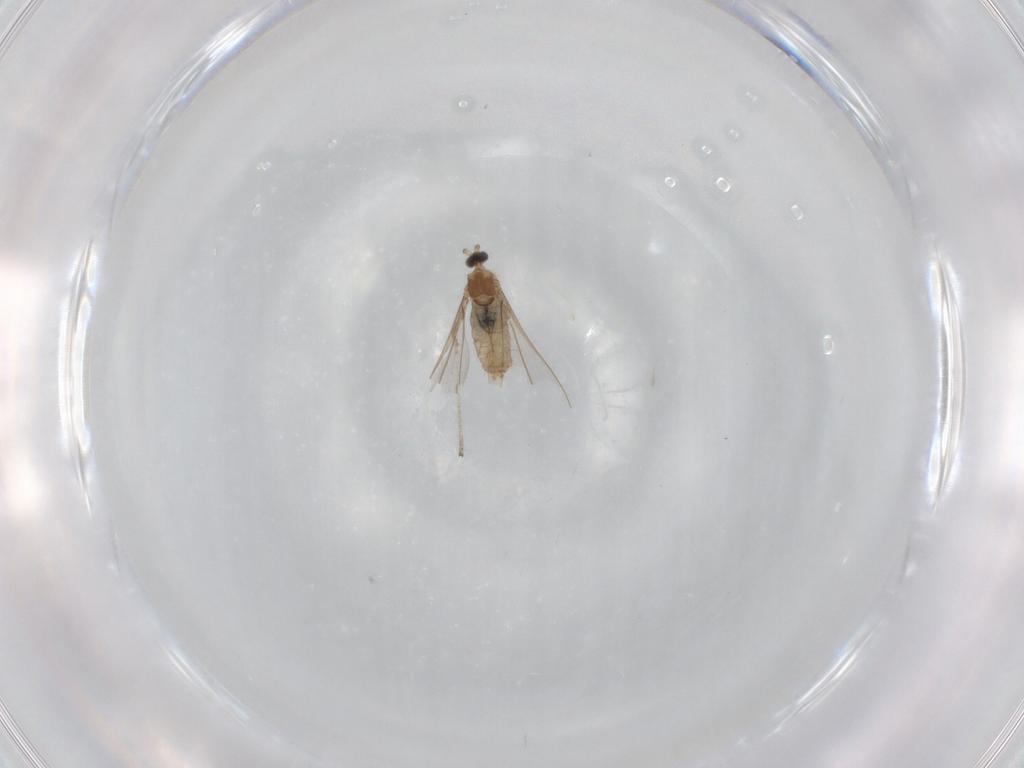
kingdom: Animalia
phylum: Arthropoda
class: Insecta
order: Diptera
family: Cecidomyiidae
